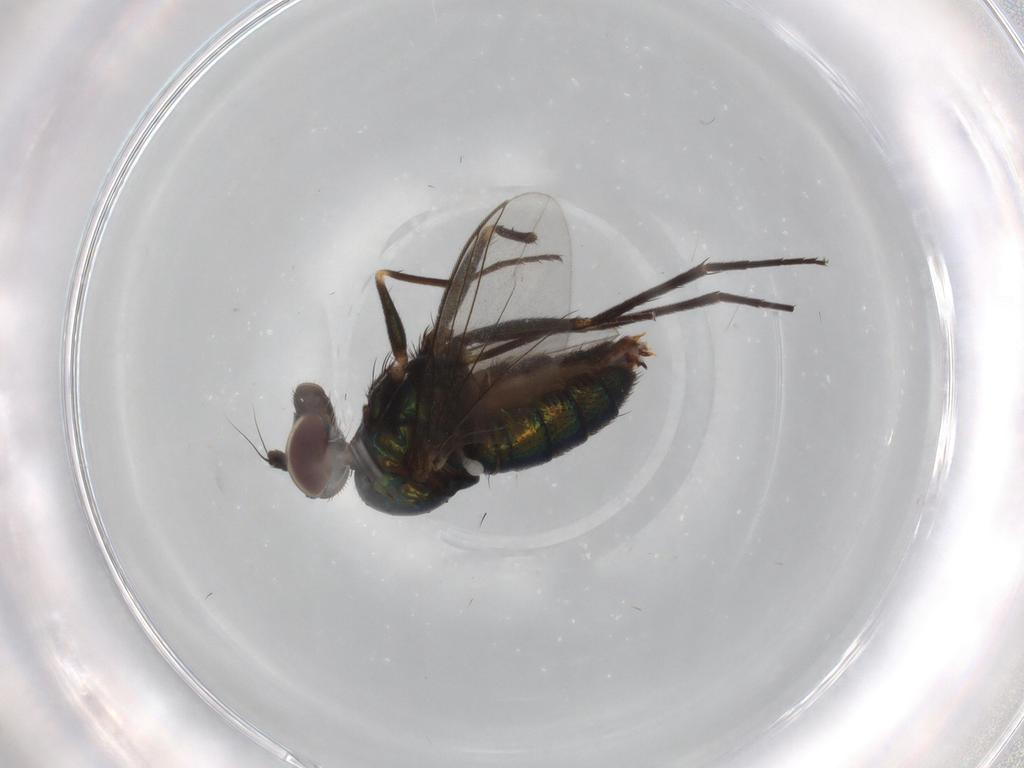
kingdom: Animalia
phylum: Arthropoda
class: Insecta
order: Diptera
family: Dolichopodidae
